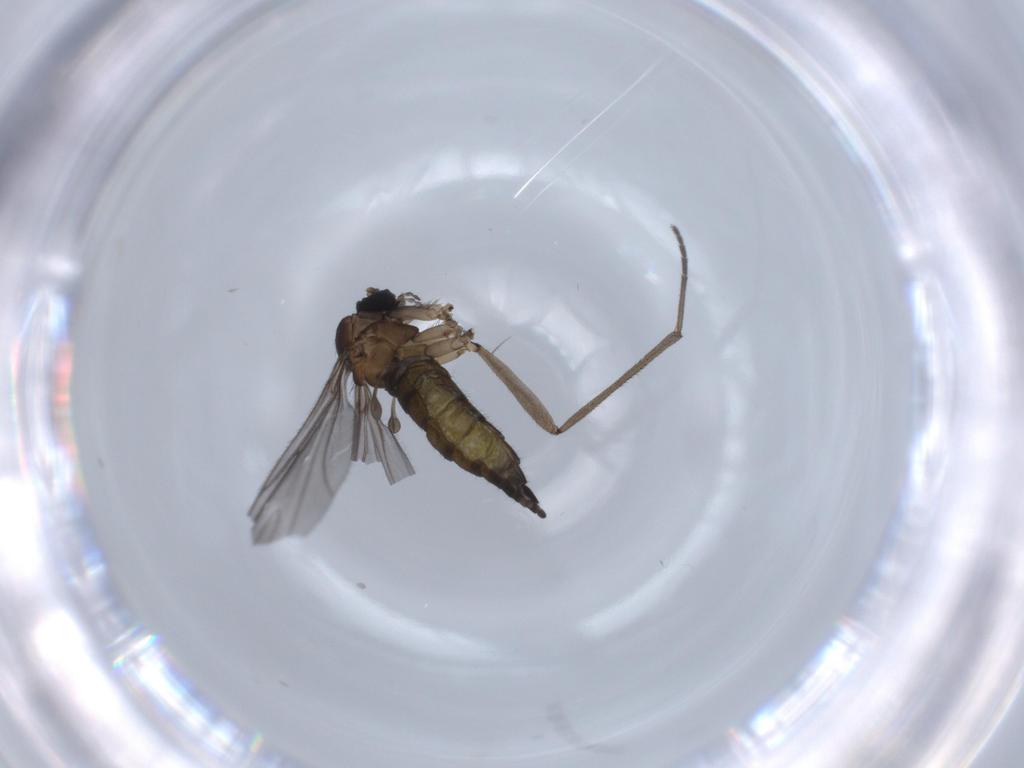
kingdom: Animalia
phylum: Arthropoda
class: Insecta
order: Diptera
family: Sciaridae
